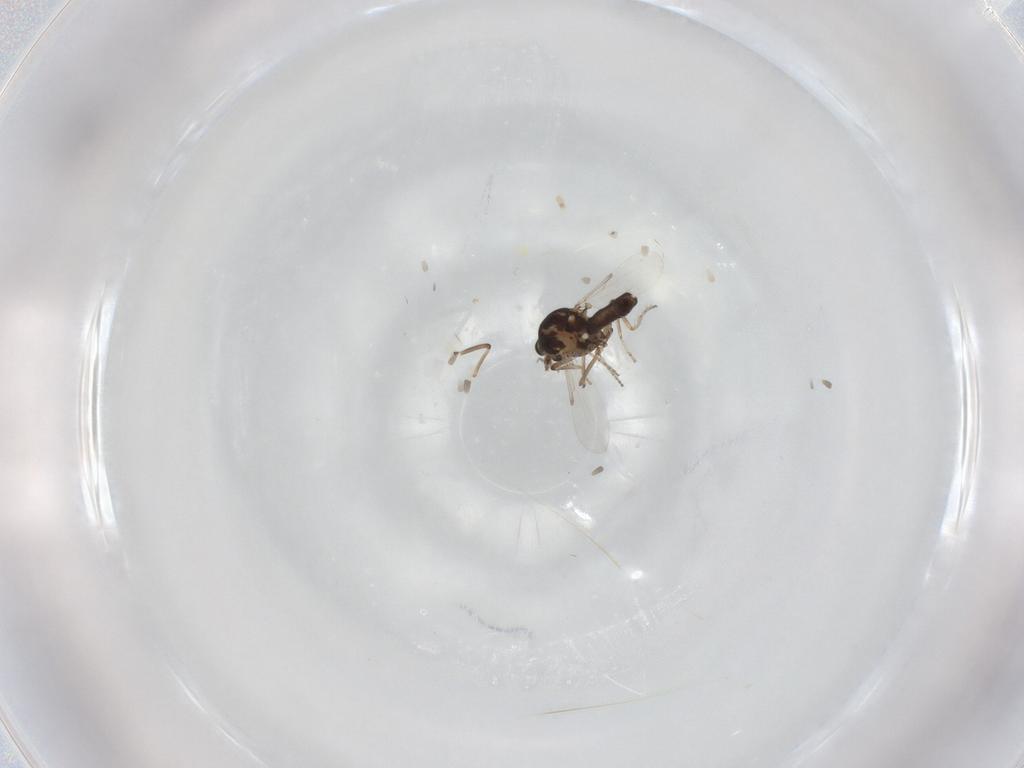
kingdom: Animalia
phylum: Arthropoda
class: Insecta
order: Diptera
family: Ceratopogonidae
